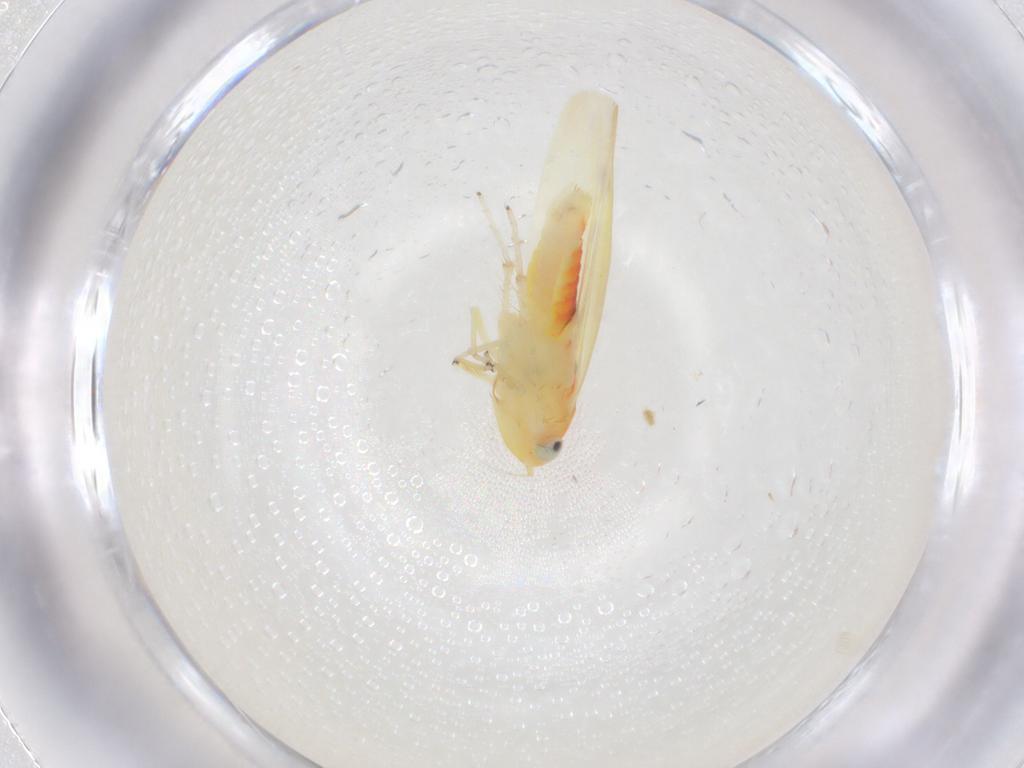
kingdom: Animalia
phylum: Arthropoda
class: Insecta
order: Hemiptera
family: Cicadellidae
